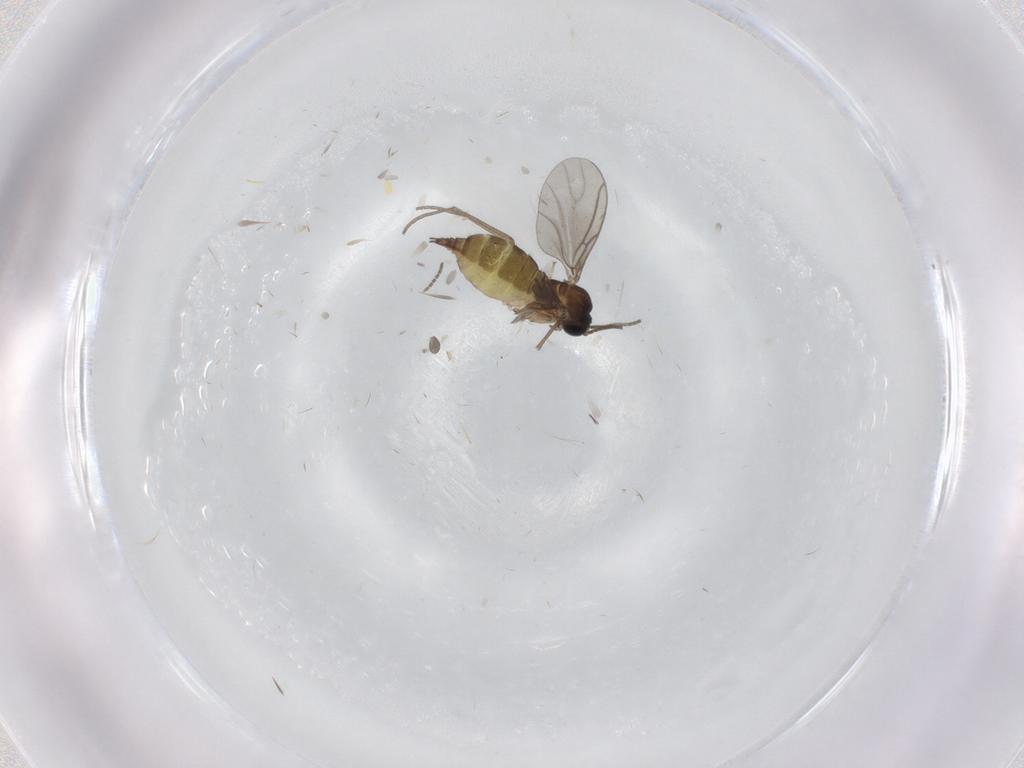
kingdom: Animalia
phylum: Arthropoda
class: Insecta
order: Diptera
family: Sciaridae
